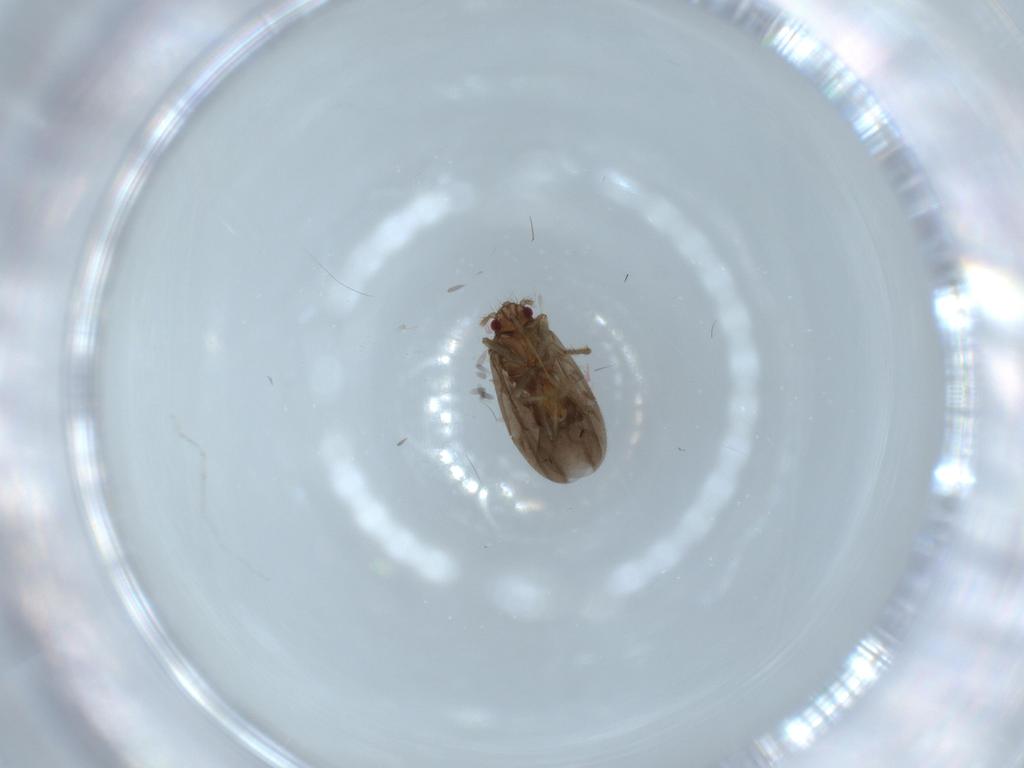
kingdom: Animalia
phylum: Arthropoda
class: Insecta
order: Hemiptera
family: Ceratocombidae
